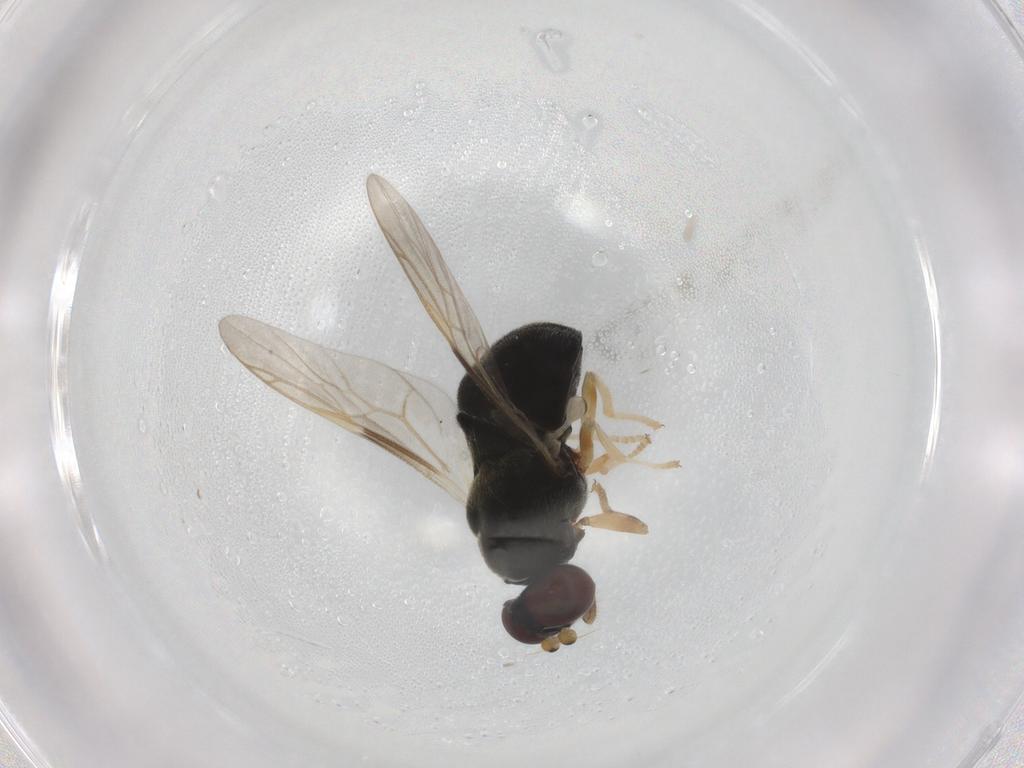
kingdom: Animalia
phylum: Arthropoda
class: Insecta
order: Diptera
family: Stratiomyidae
